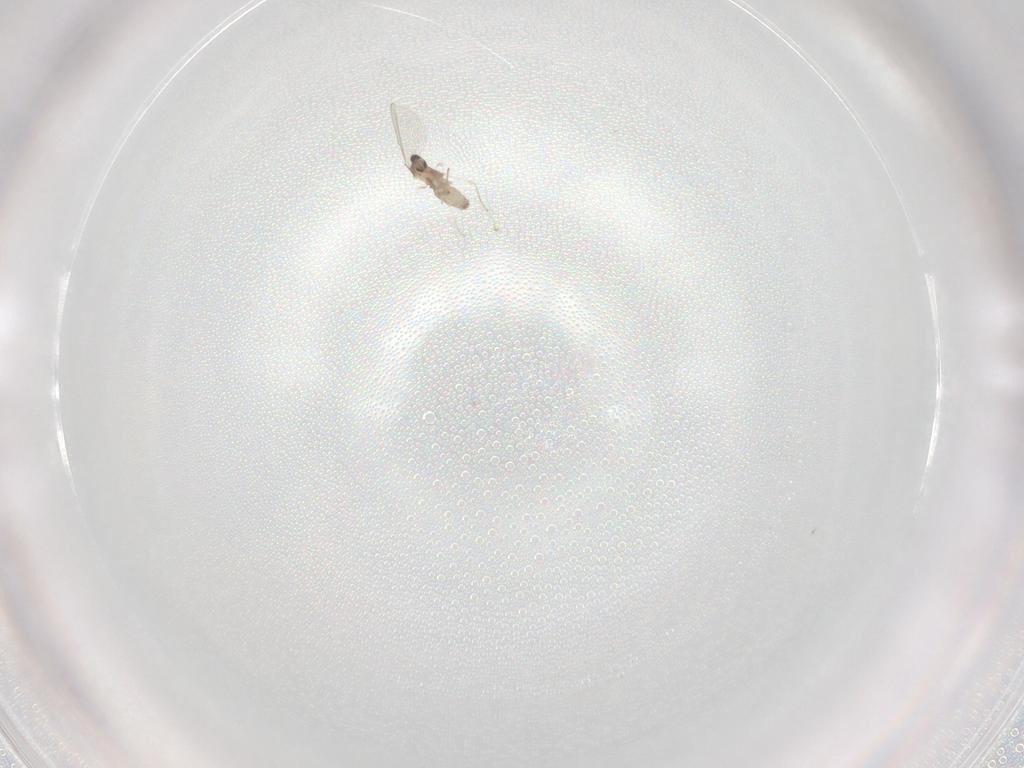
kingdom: Animalia
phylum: Arthropoda
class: Insecta
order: Diptera
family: Cecidomyiidae
